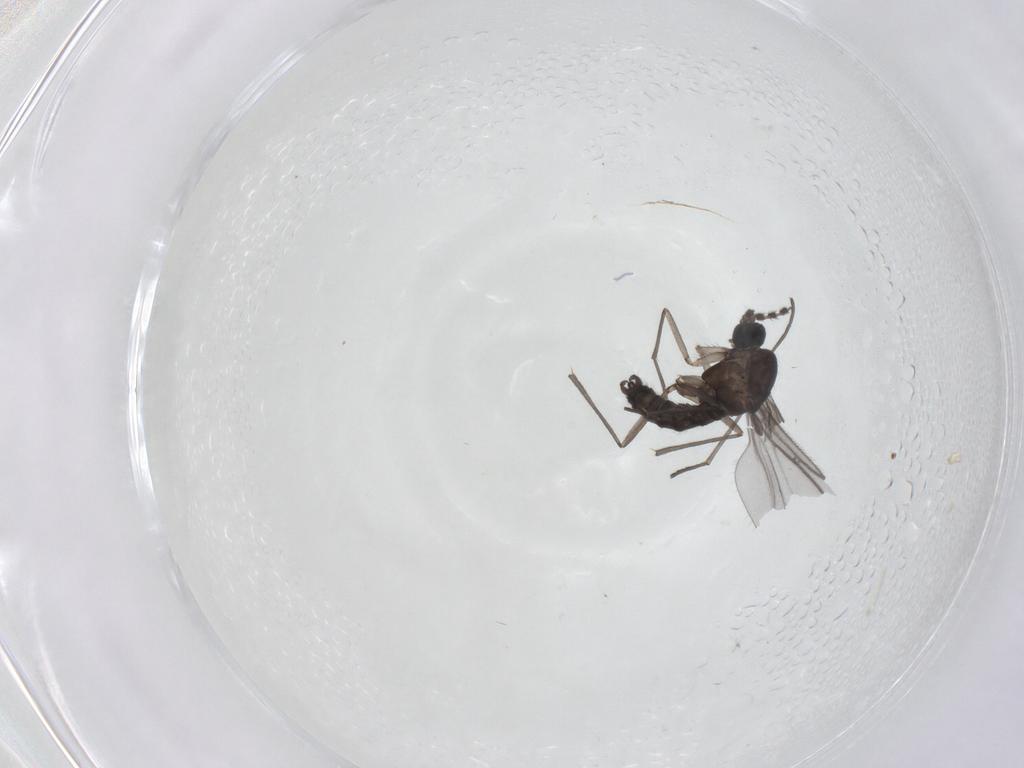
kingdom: Animalia
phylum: Arthropoda
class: Insecta
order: Diptera
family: Sciaridae
